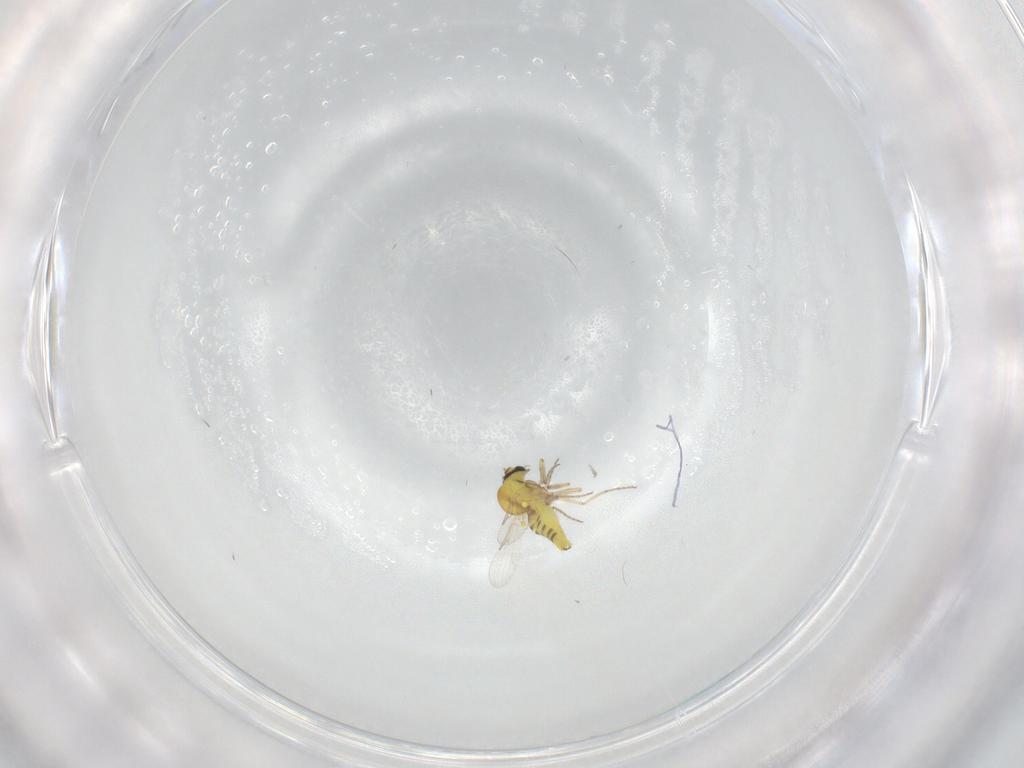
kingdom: Animalia
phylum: Arthropoda
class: Insecta
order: Diptera
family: Ceratopogonidae
